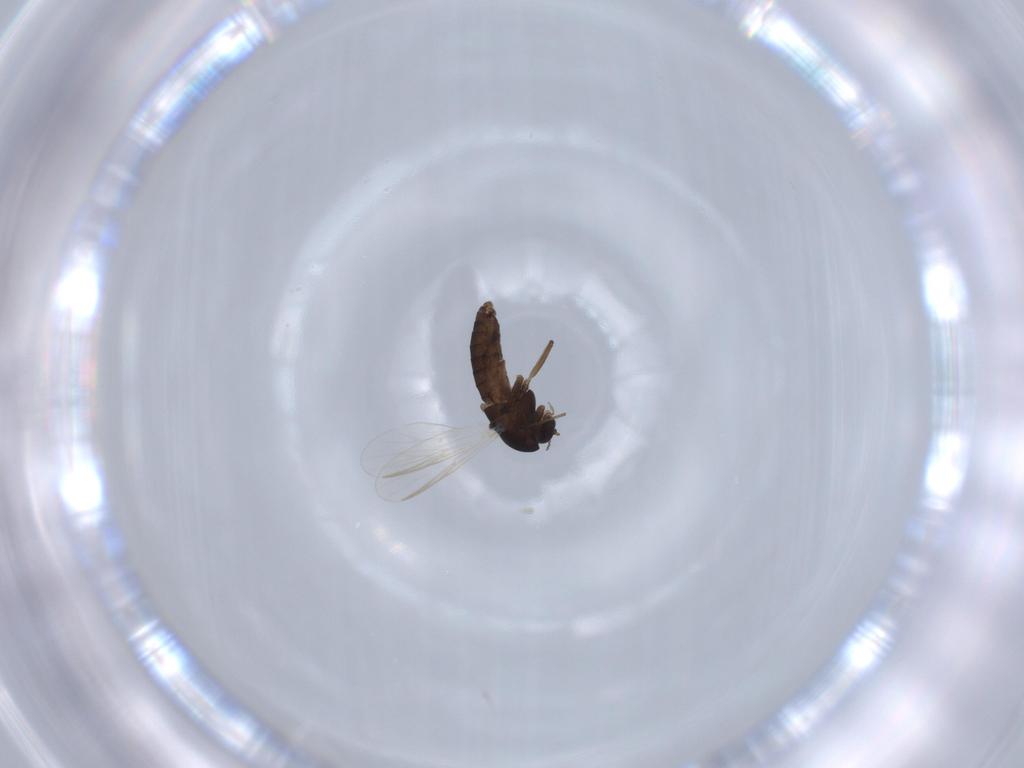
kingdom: Animalia
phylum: Arthropoda
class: Insecta
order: Diptera
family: Chironomidae
